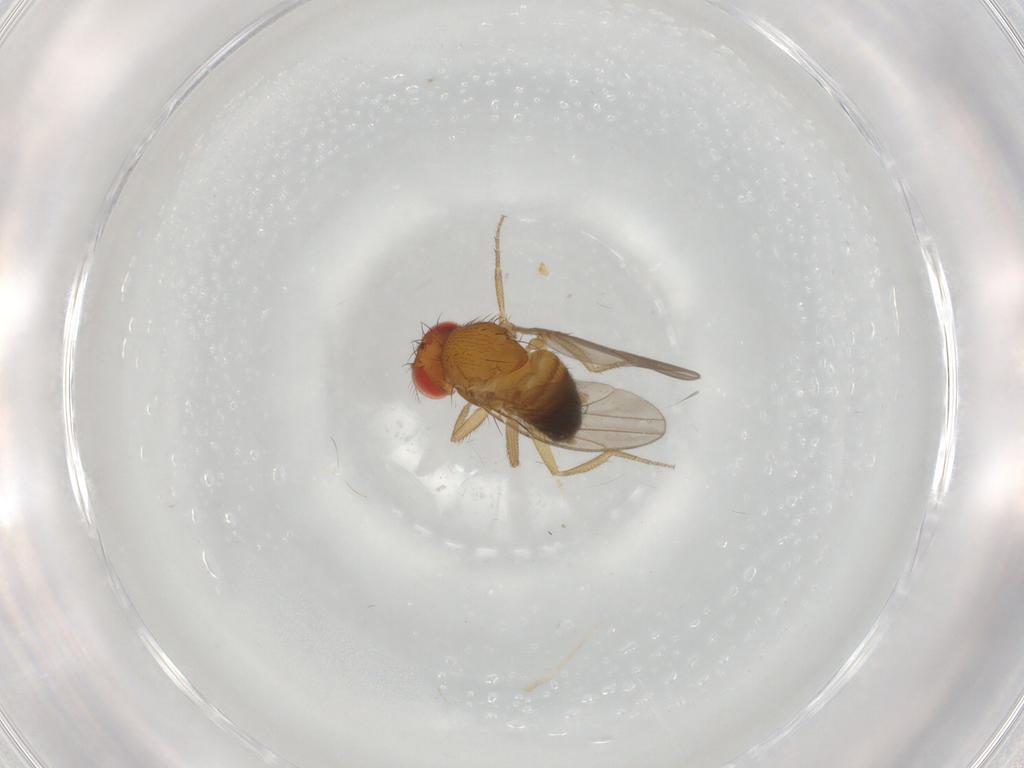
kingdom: Animalia
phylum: Arthropoda
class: Insecta
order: Diptera
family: Drosophilidae
